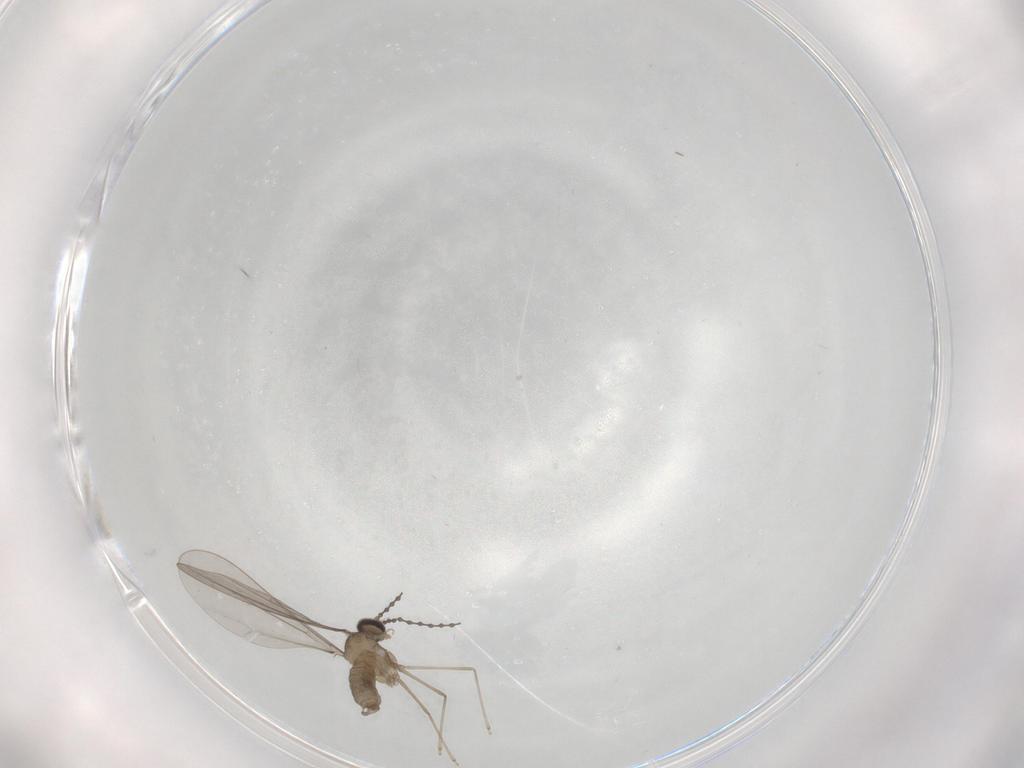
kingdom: Animalia
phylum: Arthropoda
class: Insecta
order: Diptera
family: Cecidomyiidae
